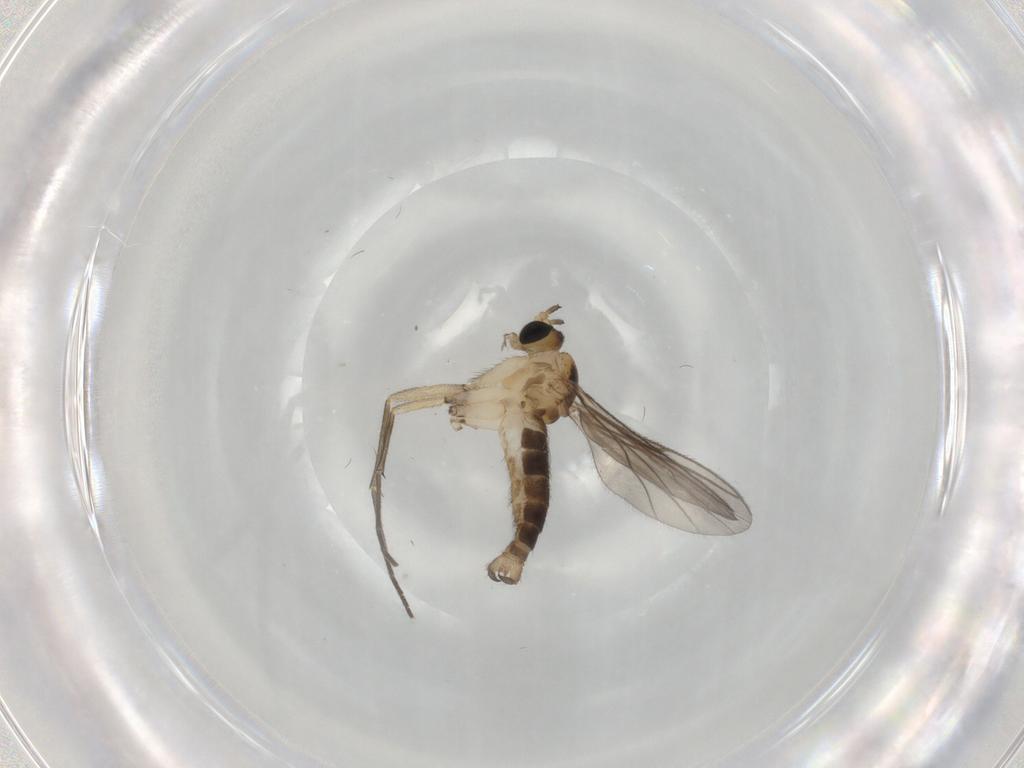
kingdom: Animalia
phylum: Arthropoda
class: Insecta
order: Diptera
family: Sciaridae
